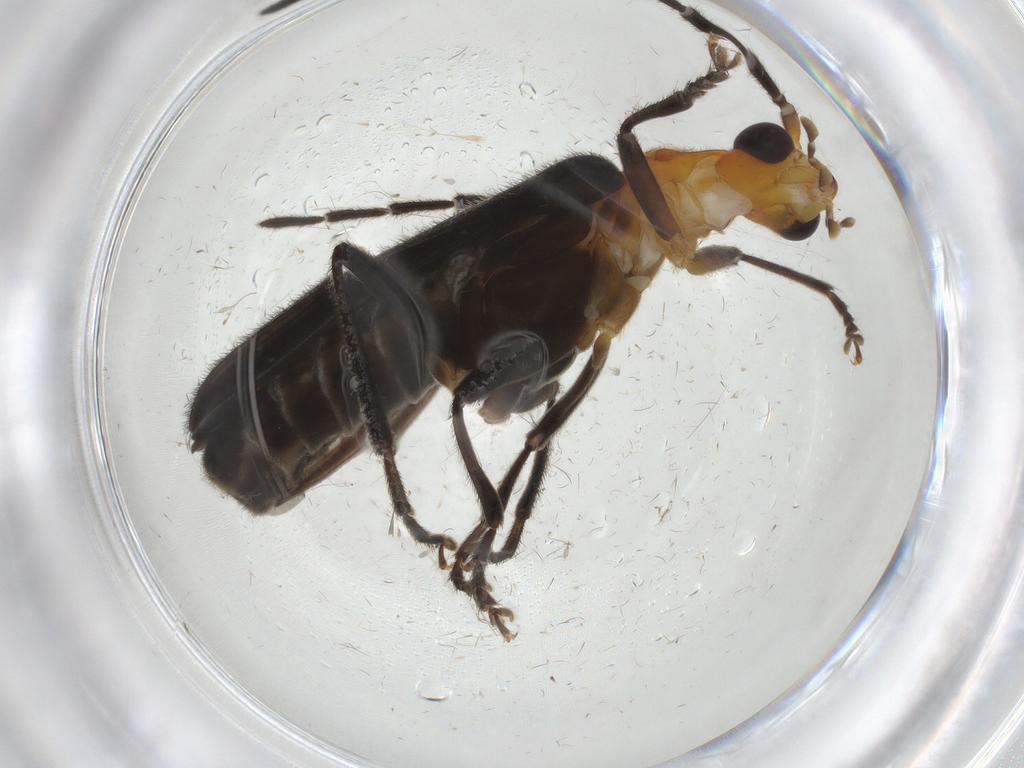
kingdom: Animalia
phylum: Arthropoda
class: Insecta
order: Coleoptera
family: Cantharidae
